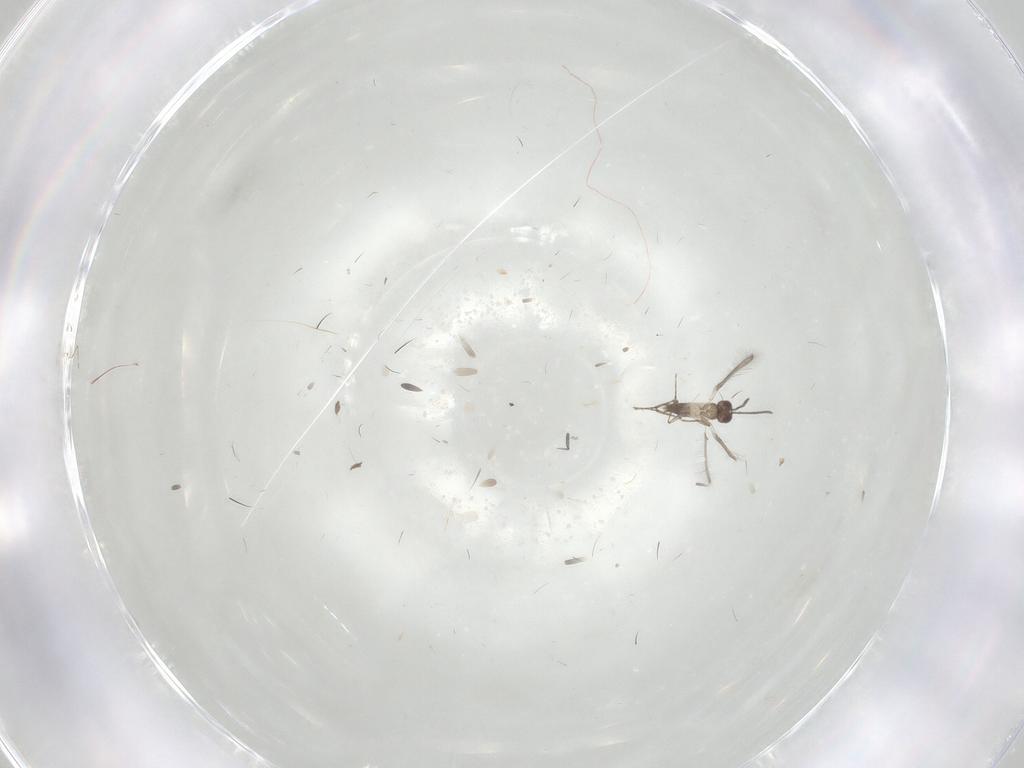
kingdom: Animalia
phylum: Arthropoda
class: Insecta
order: Hymenoptera
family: Mymaridae
